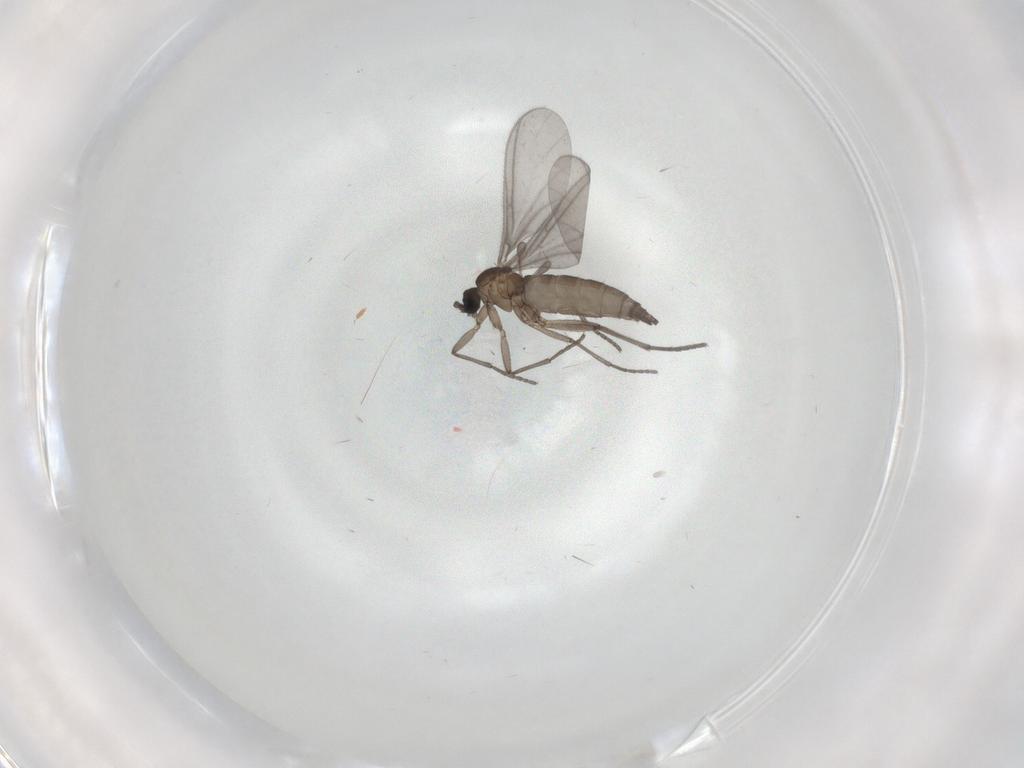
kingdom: Animalia
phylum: Arthropoda
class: Insecta
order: Diptera
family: Sciaridae
